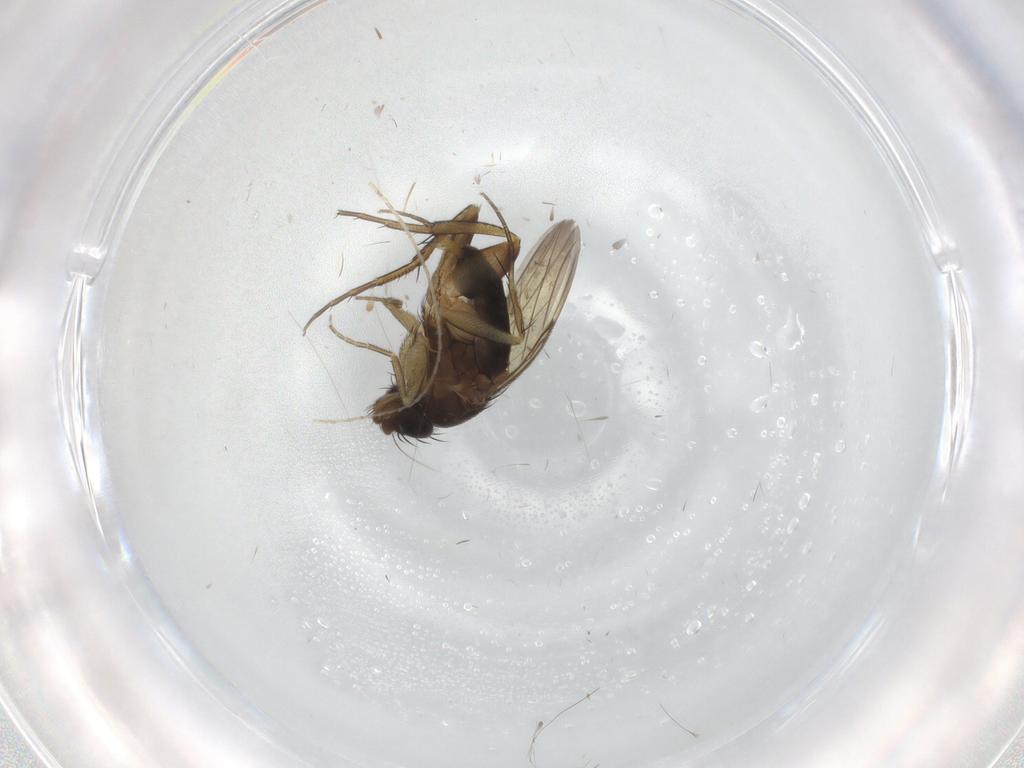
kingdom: Animalia
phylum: Arthropoda
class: Insecta
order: Diptera
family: Phoridae
